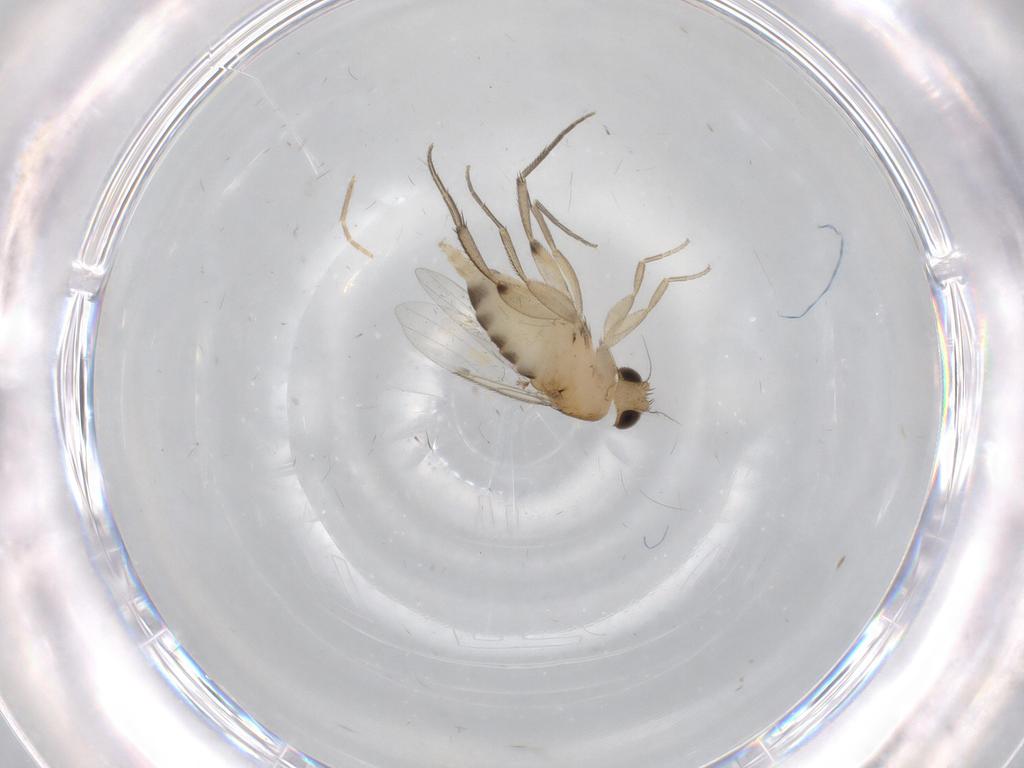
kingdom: Animalia
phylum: Arthropoda
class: Insecta
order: Diptera
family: Chironomidae
